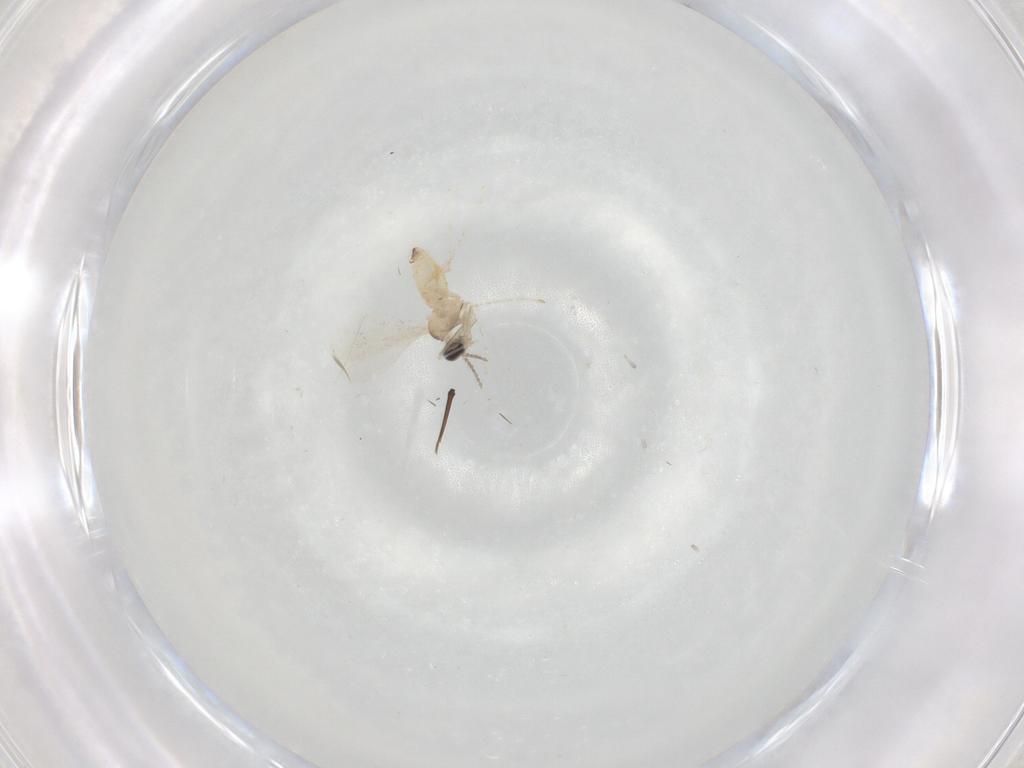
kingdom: Animalia
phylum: Arthropoda
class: Insecta
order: Diptera
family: Cecidomyiidae
